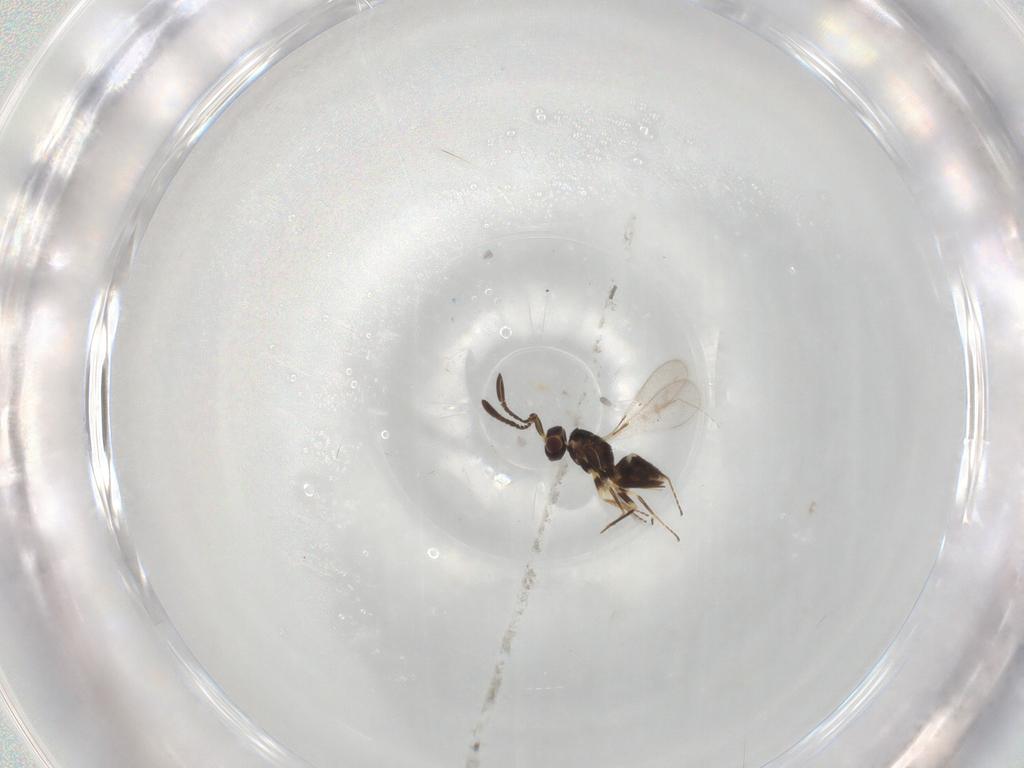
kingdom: Animalia
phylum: Arthropoda
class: Insecta
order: Hymenoptera
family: Mymaridae
